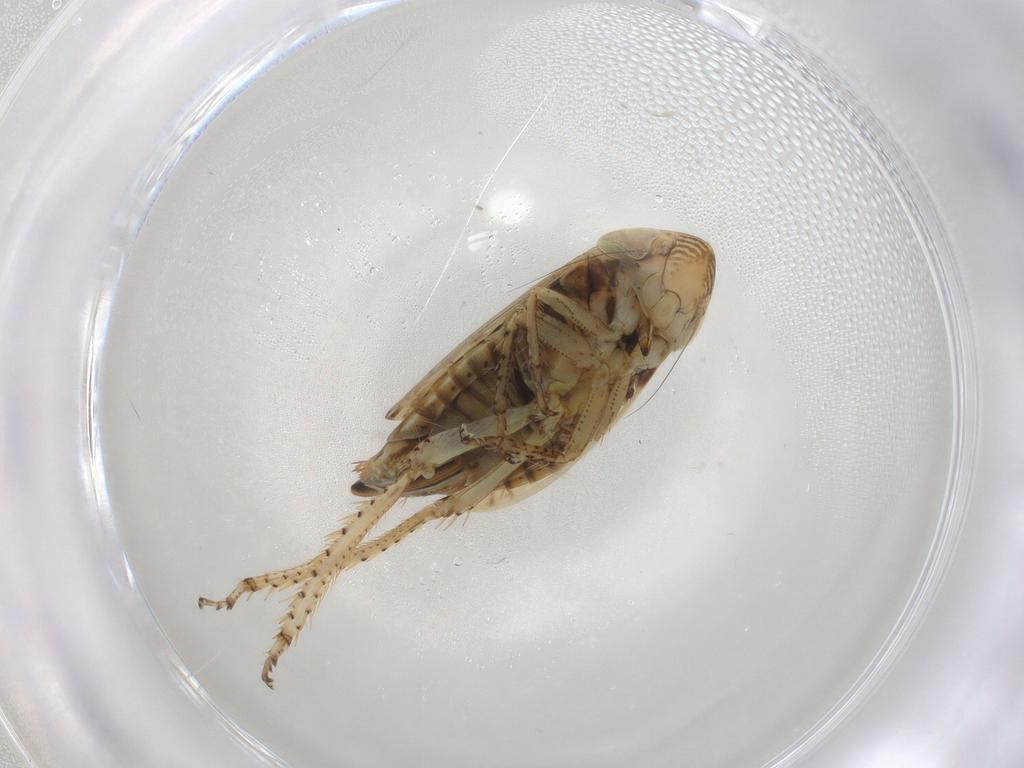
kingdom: Animalia
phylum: Arthropoda
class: Insecta
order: Hemiptera
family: Cicadellidae
